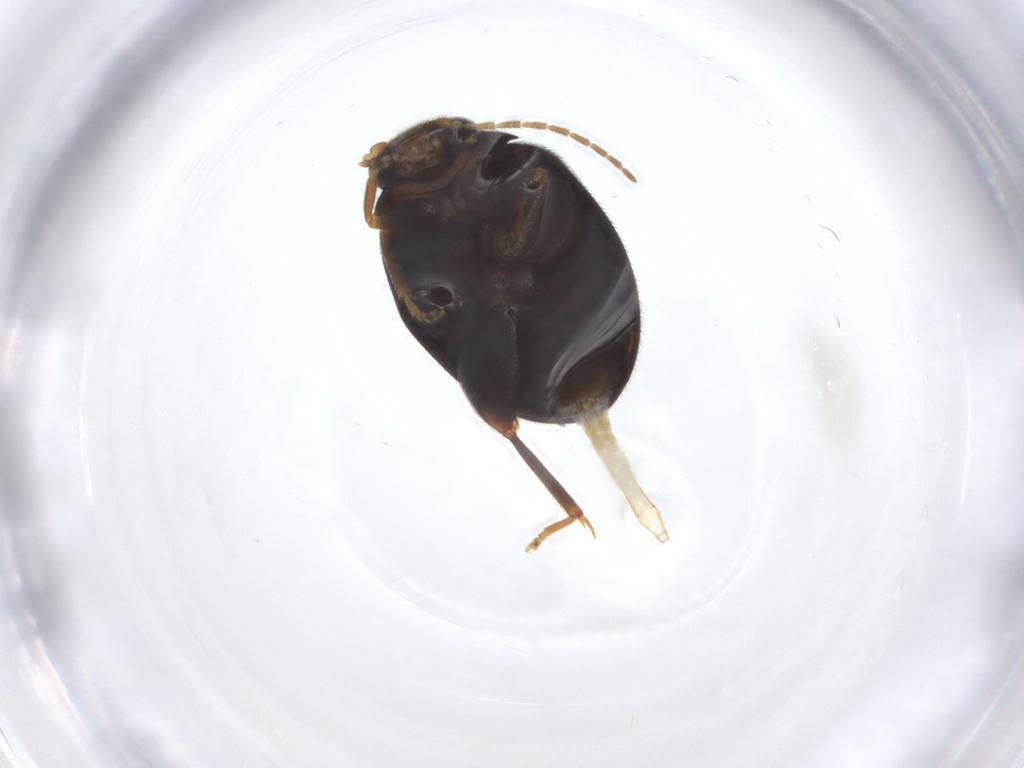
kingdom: Animalia
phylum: Arthropoda
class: Insecta
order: Coleoptera
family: Scirtidae
